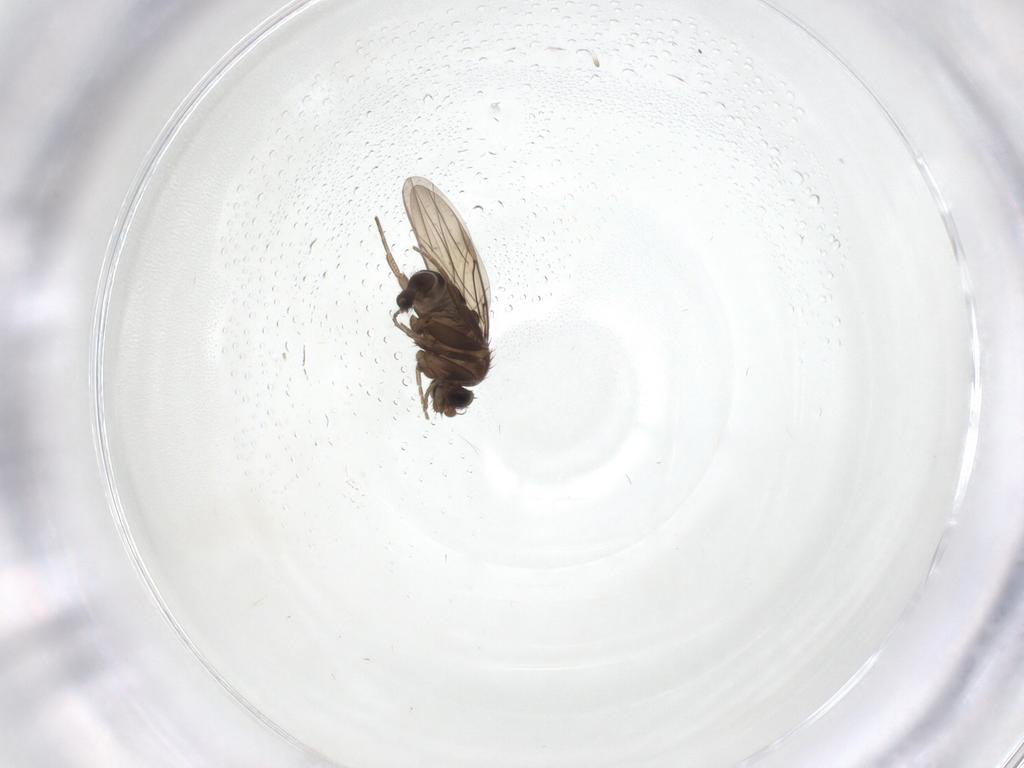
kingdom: Animalia
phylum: Arthropoda
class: Insecta
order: Diptera
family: Phoridae
